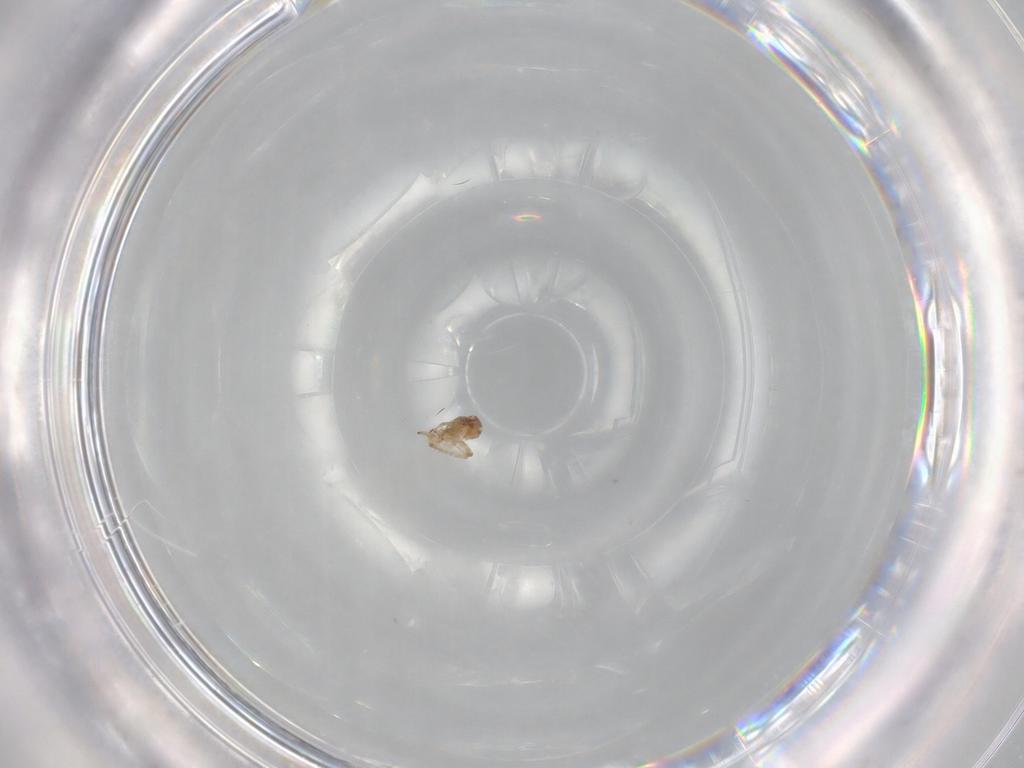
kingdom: Animalia
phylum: Arthropoda
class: Insecta
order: Hemiptera
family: Aphididae
